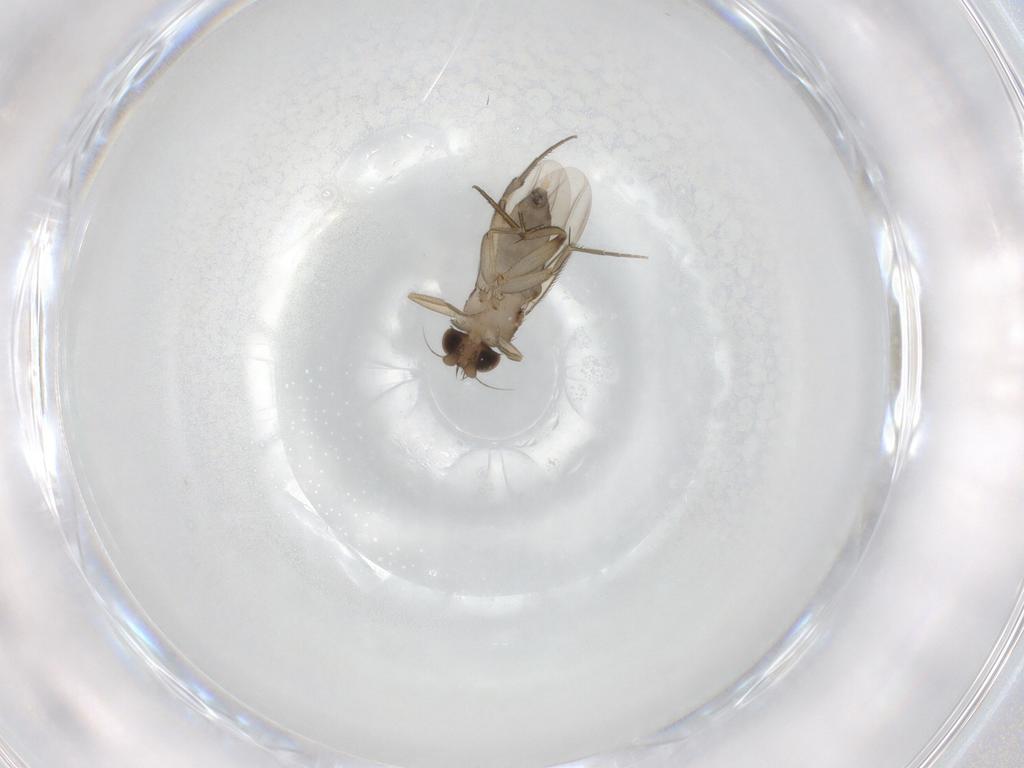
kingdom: Animalia
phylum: Arthropoda
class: Insecta
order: Diptera
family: Phoridae
